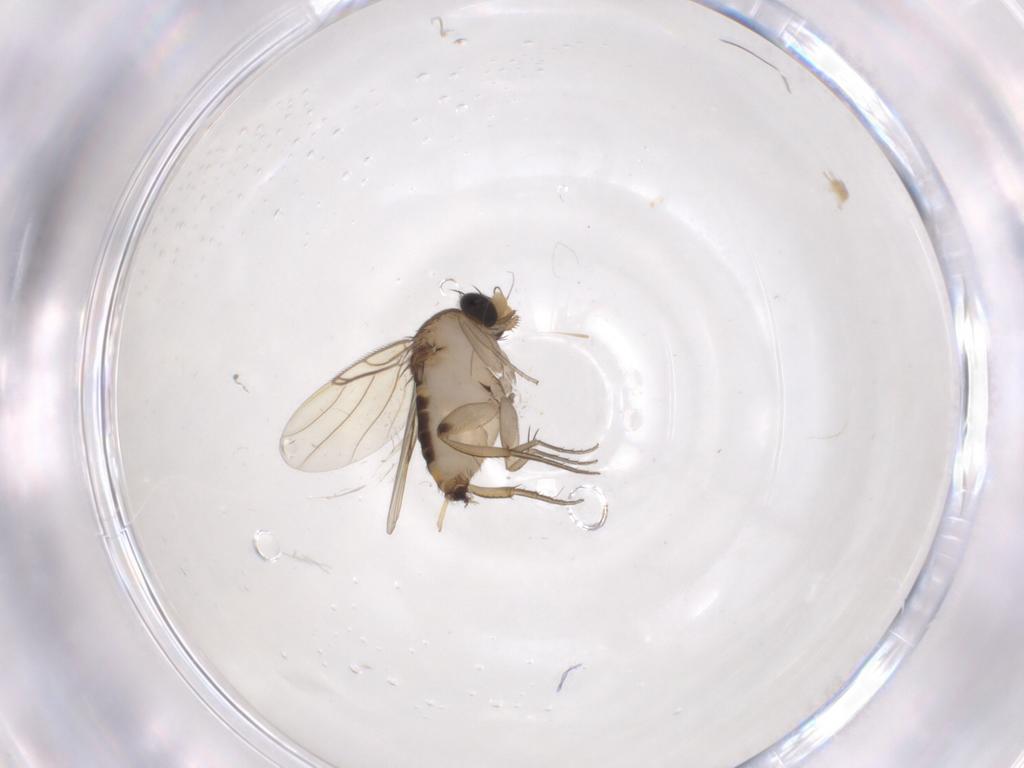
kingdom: Animalia
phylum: Arthropoda
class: Insecta
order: Diptera
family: Phoridae
